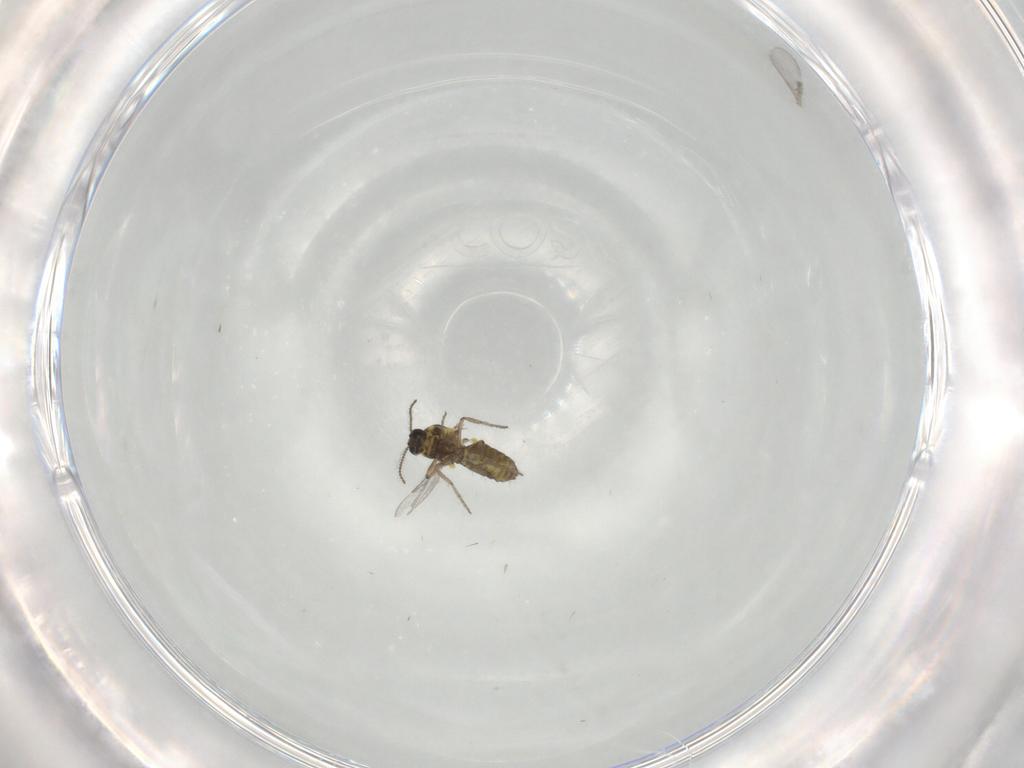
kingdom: Animalia
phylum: Arthropoda
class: Insecta
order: Diptera
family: Ceratopogonidae
